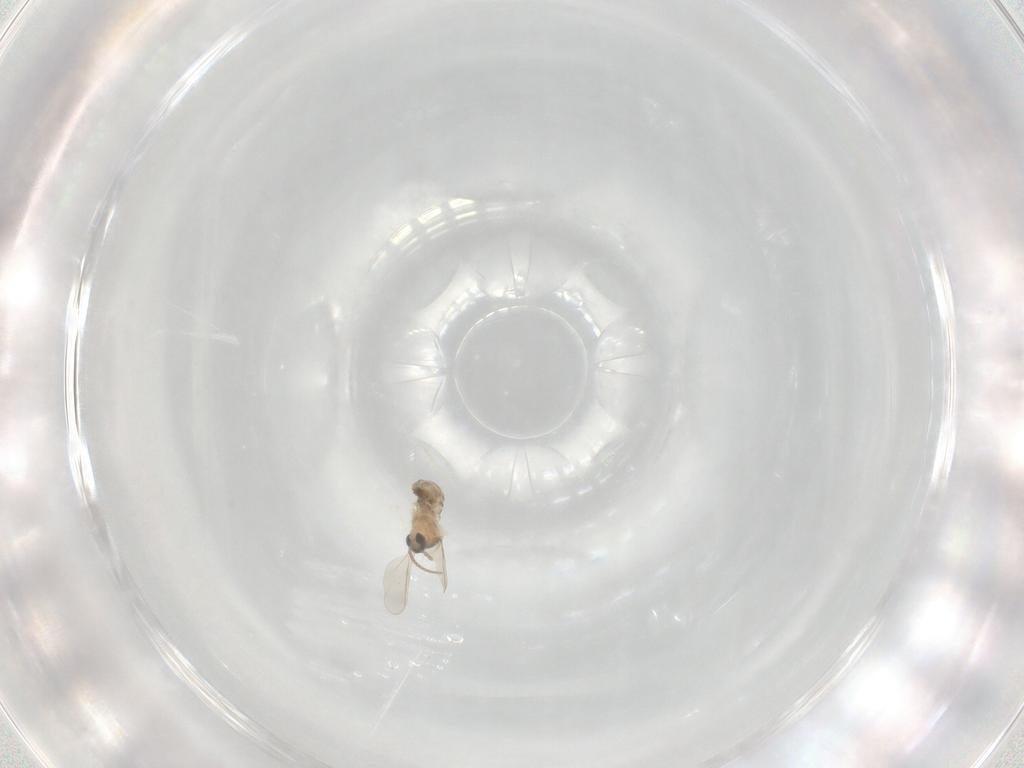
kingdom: Animalia
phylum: Arthropoda
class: Insecta
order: Diptera
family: Cecidomyiidae
